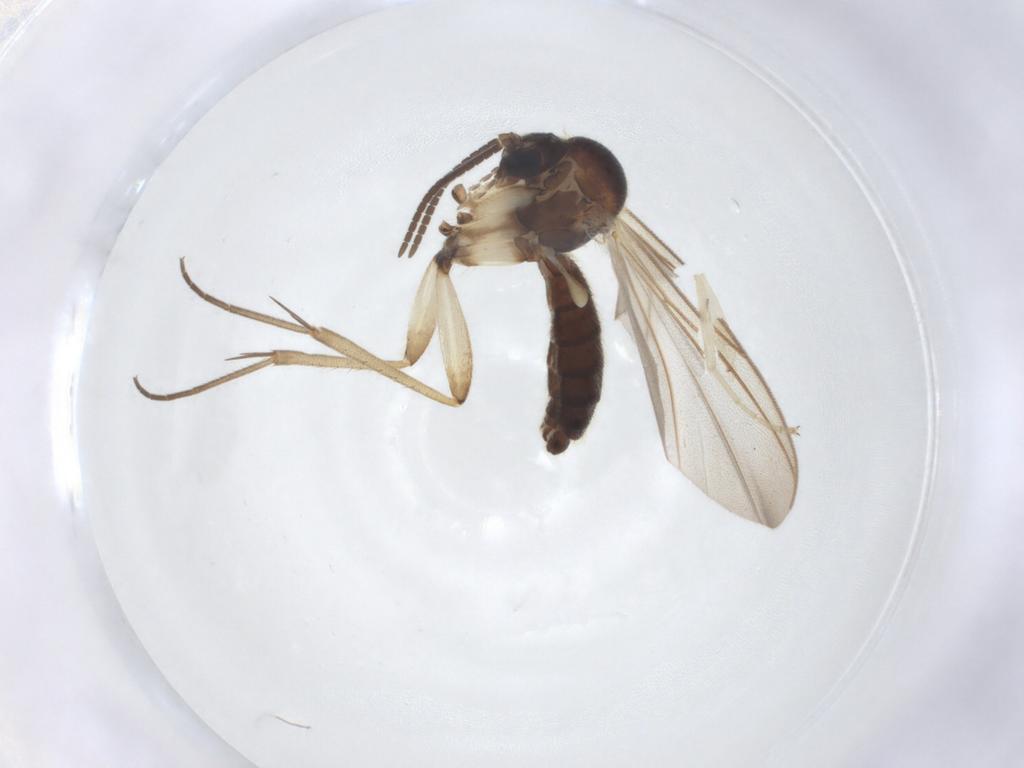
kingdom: Animalia
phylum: Arthropoda
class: Insecta
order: Diptera
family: Mycetophilidae
